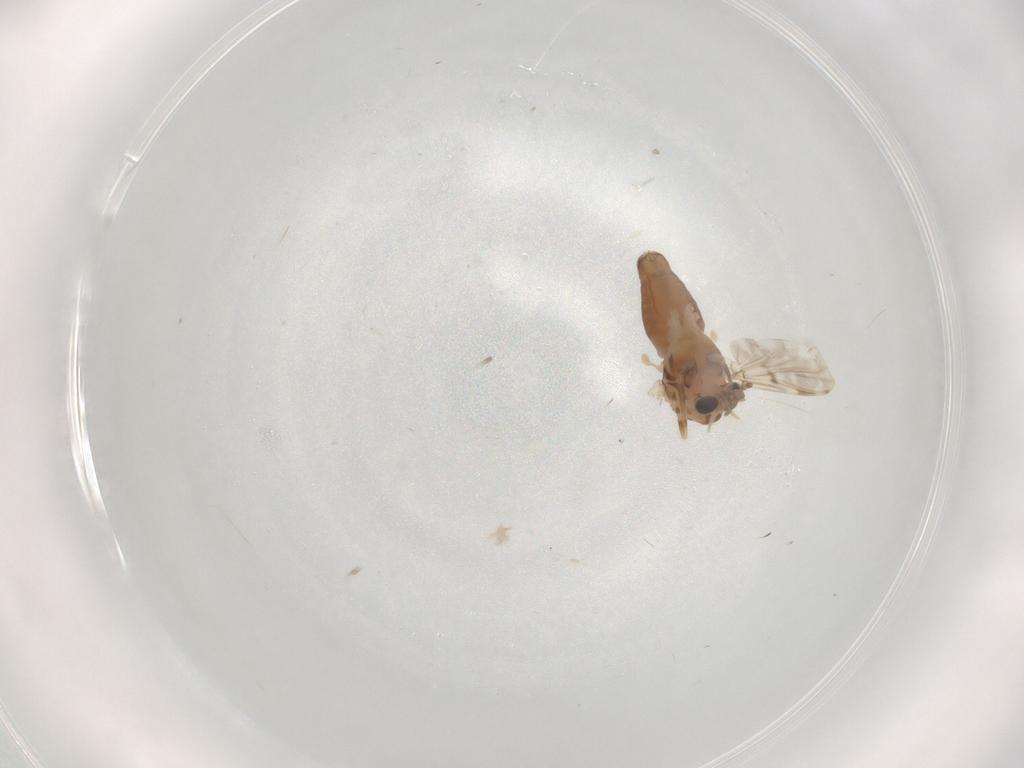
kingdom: Animalia
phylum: Arthropoda
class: Insecta
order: Diptera
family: Chironomidae
